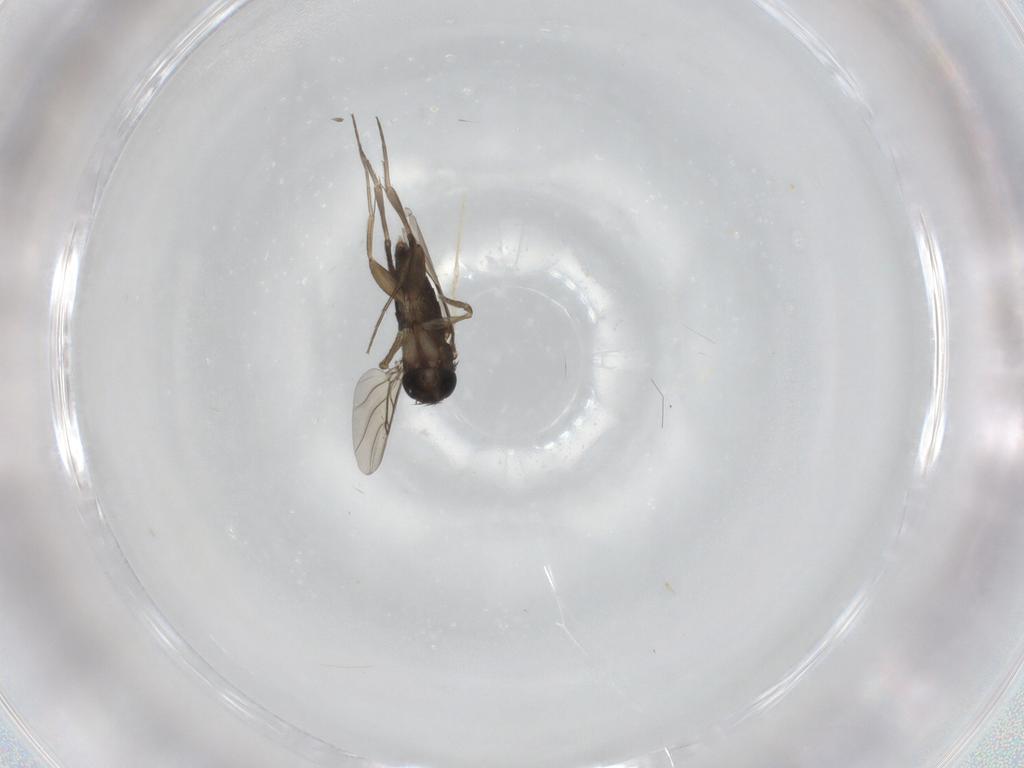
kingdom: Animalia
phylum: Arthropoda
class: Insecta
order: Diptera
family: Phoridae
